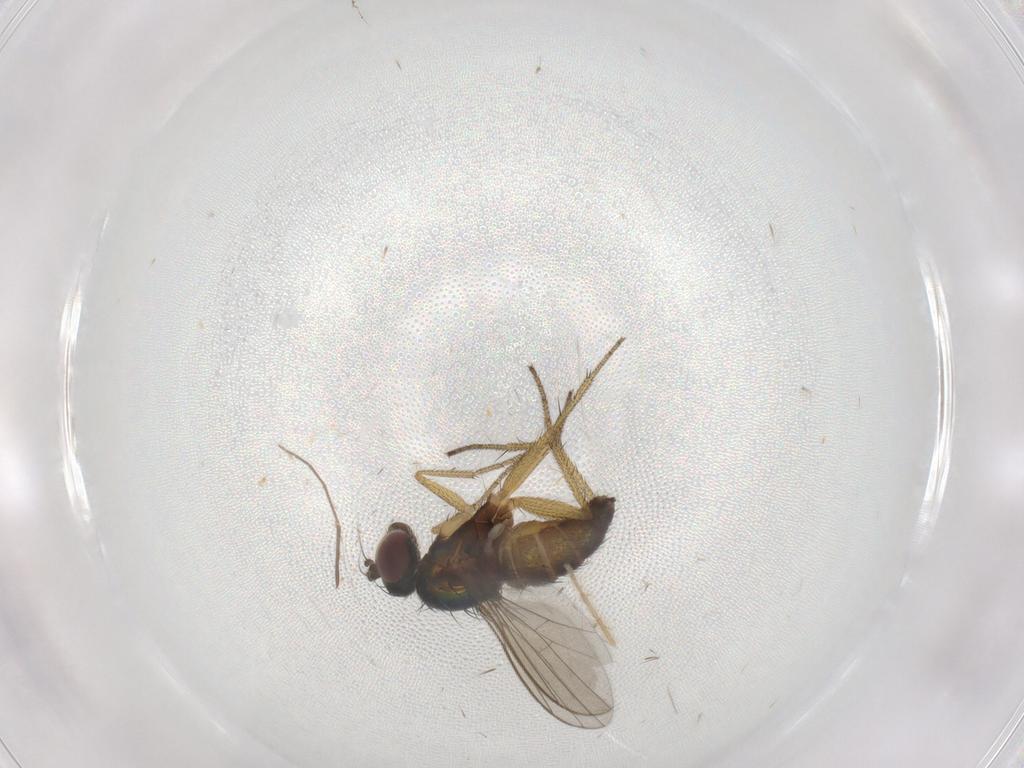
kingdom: Animalia
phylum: Arthropoda
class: Insecta
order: Diptera
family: Dolichopodidae
